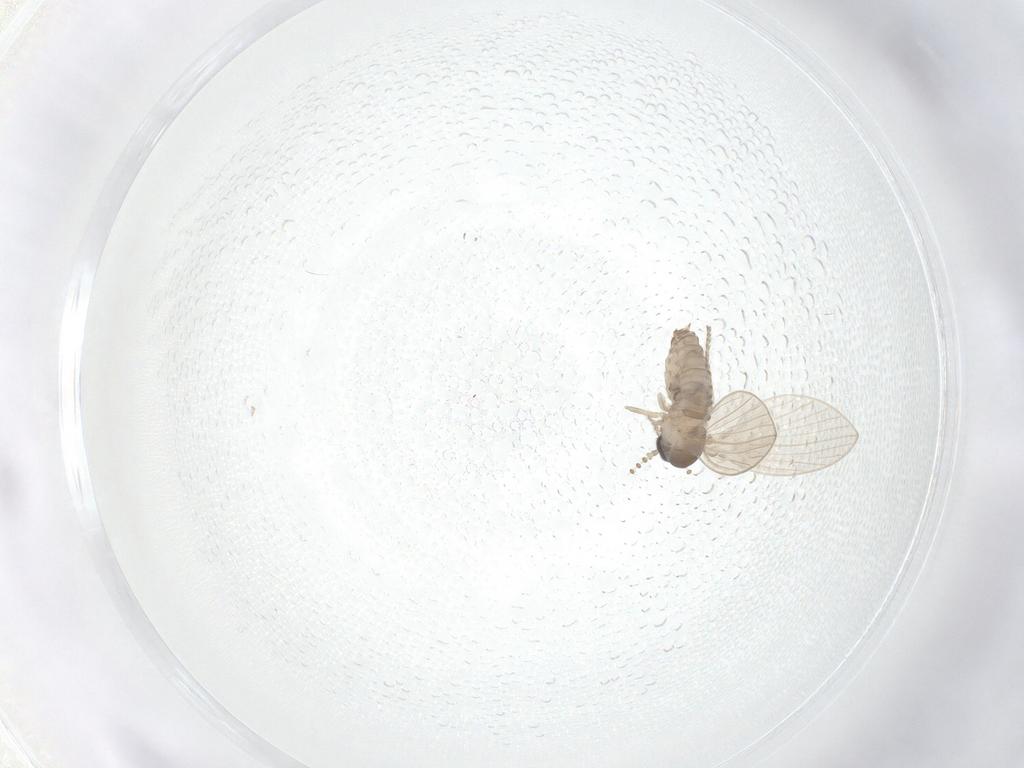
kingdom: Animalia
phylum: Arthropoda
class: Insecta
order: Diptera
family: Psychodidae
